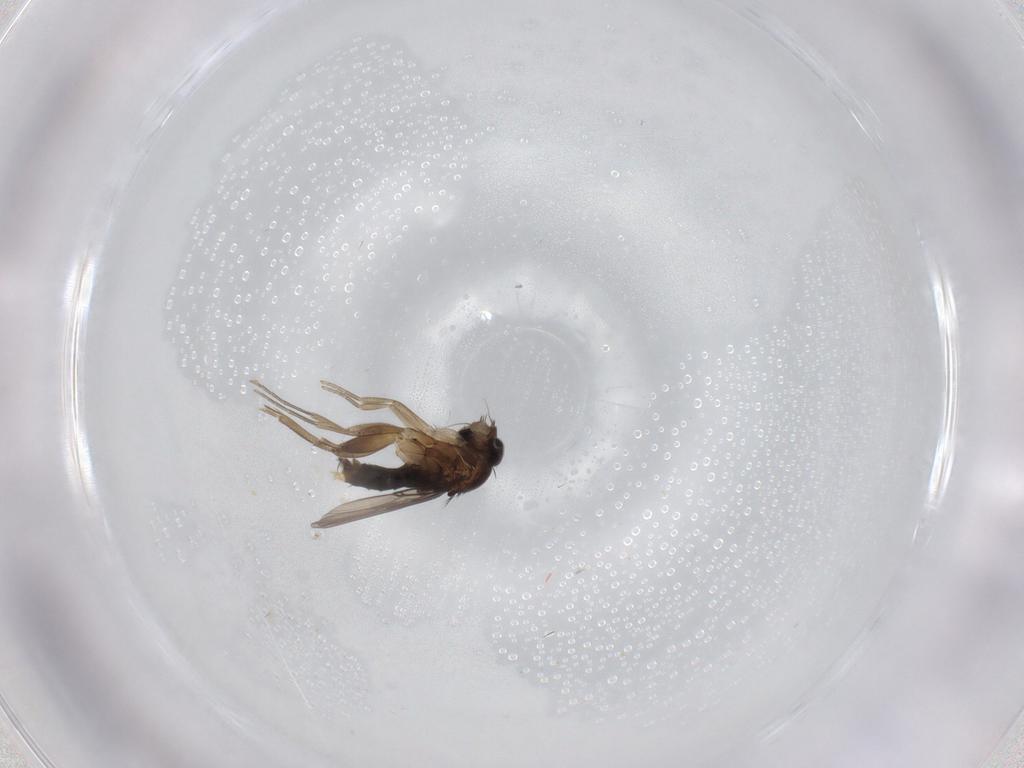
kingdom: Animalia
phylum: Arthropoda
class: Insecta
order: Diptera
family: Phoridae
